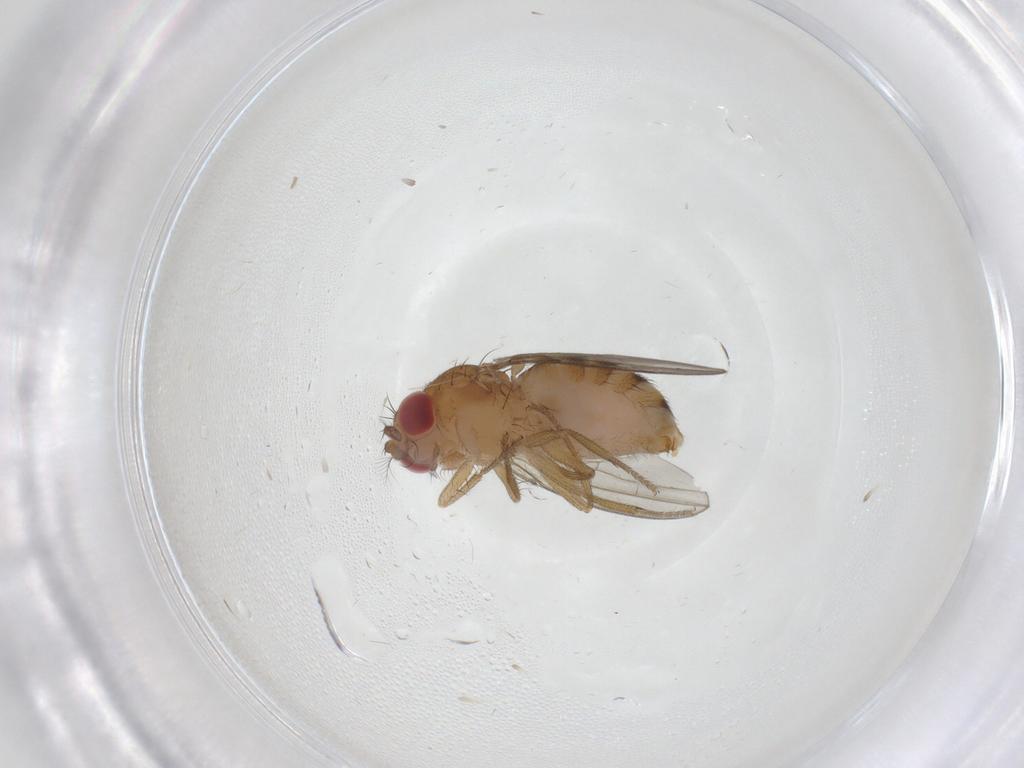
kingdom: Animalia
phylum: Arthropoda
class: Insecta
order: Diptera
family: Drosophilidae
